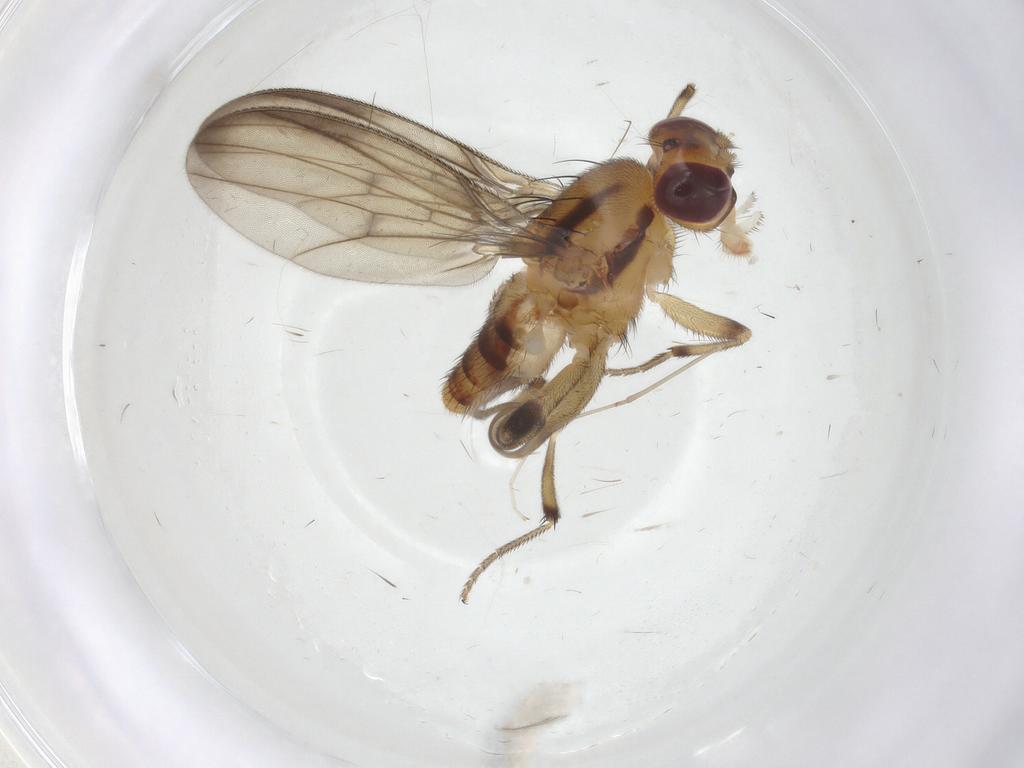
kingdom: Animalia
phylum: Arthropoda
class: Insecta
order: Diptera
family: Clusiidae
